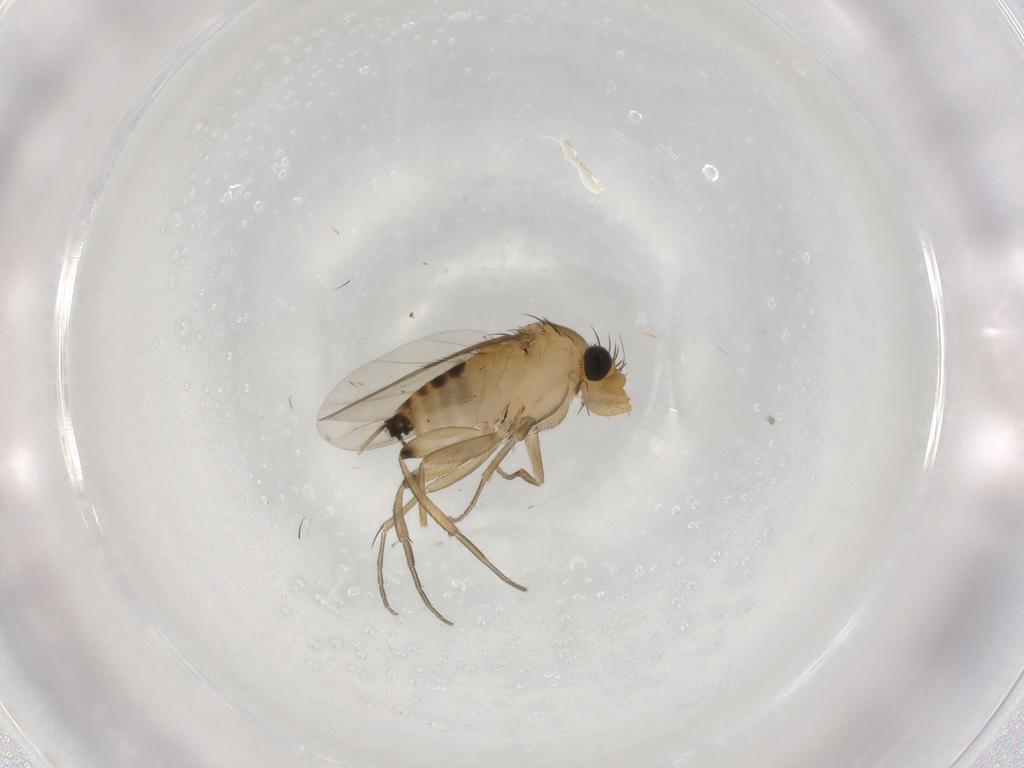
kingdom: Animalia
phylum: Arthropoda
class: Insecta
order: Diptera
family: Phoridae
